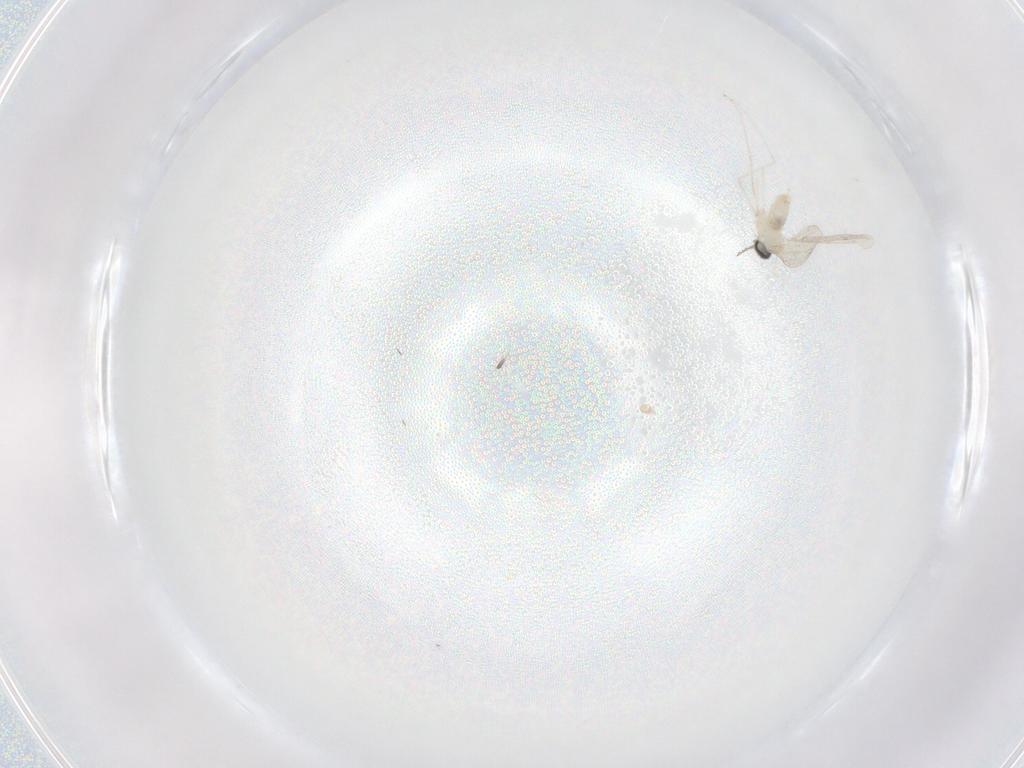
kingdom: Animalia
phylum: Arthropoda
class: Insecta
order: Diptera
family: Cecidomyiidae
